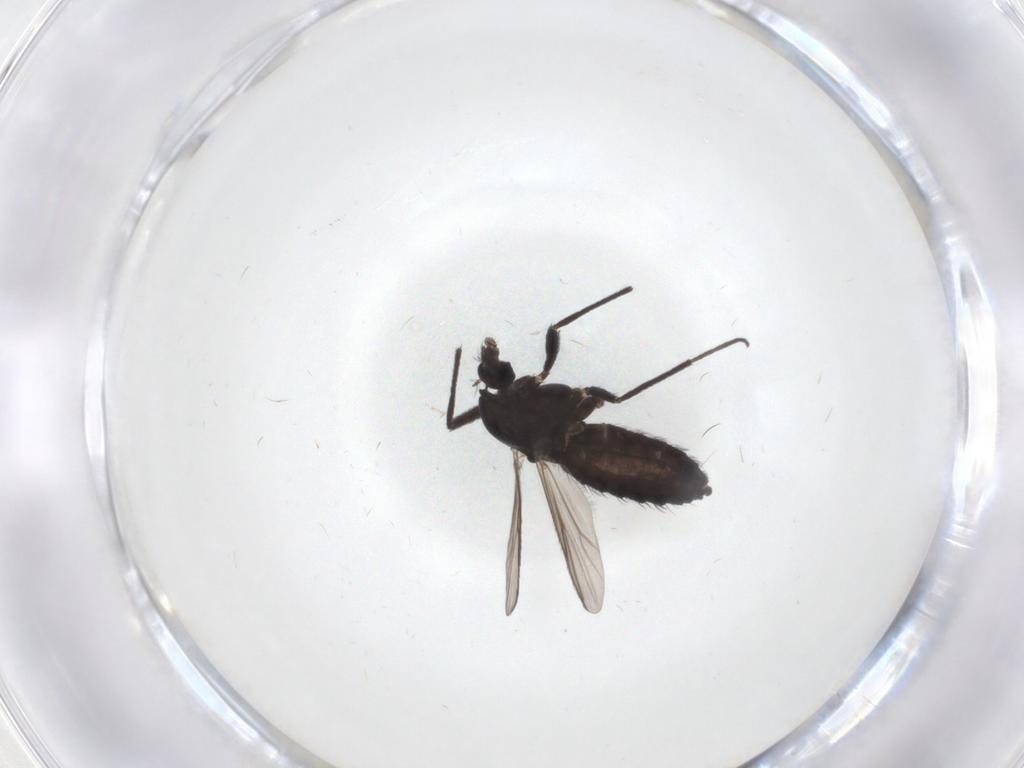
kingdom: Animalia
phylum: Arthropoda
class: Insecta
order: Diptera
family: Chironomidae
